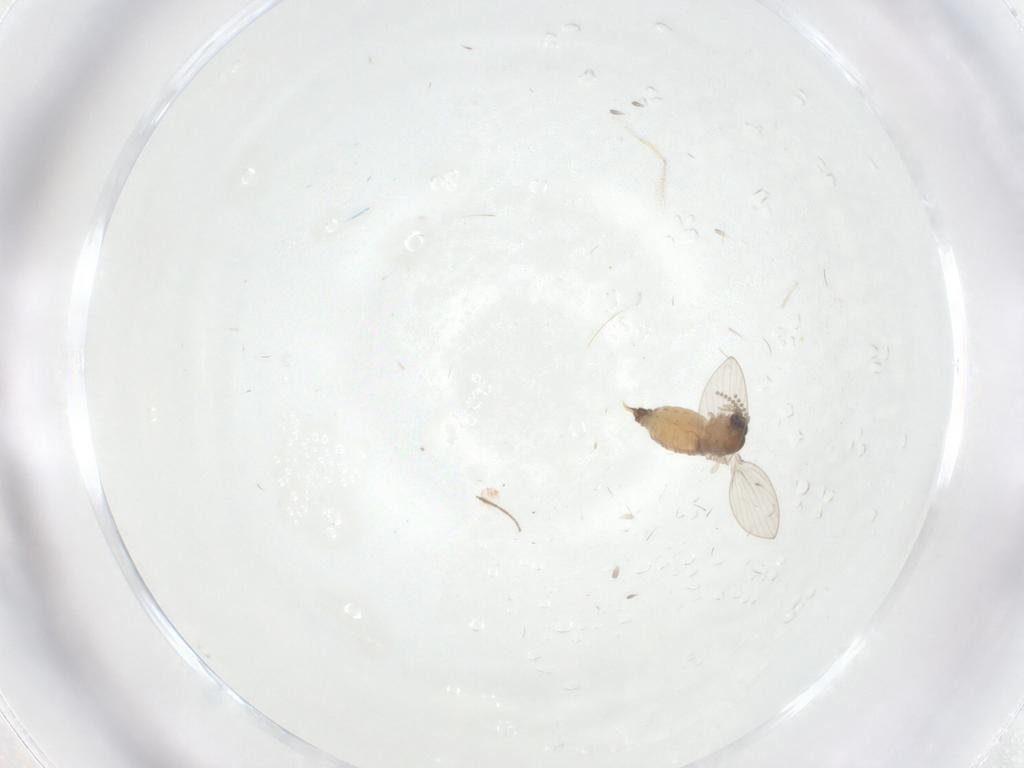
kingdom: Animalia
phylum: Arthropoda
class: Insecta
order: Diptera
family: Psychodidae
